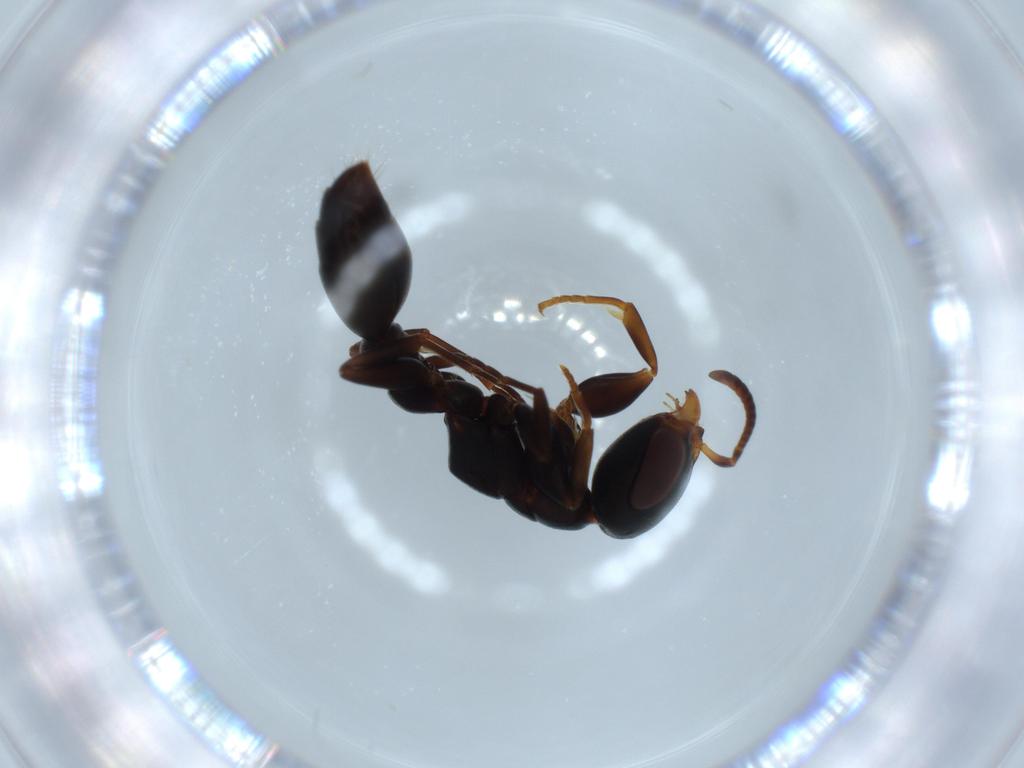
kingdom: Animalia
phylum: Arthropoda
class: Insecta
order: Hymenoptera
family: Formicidae
